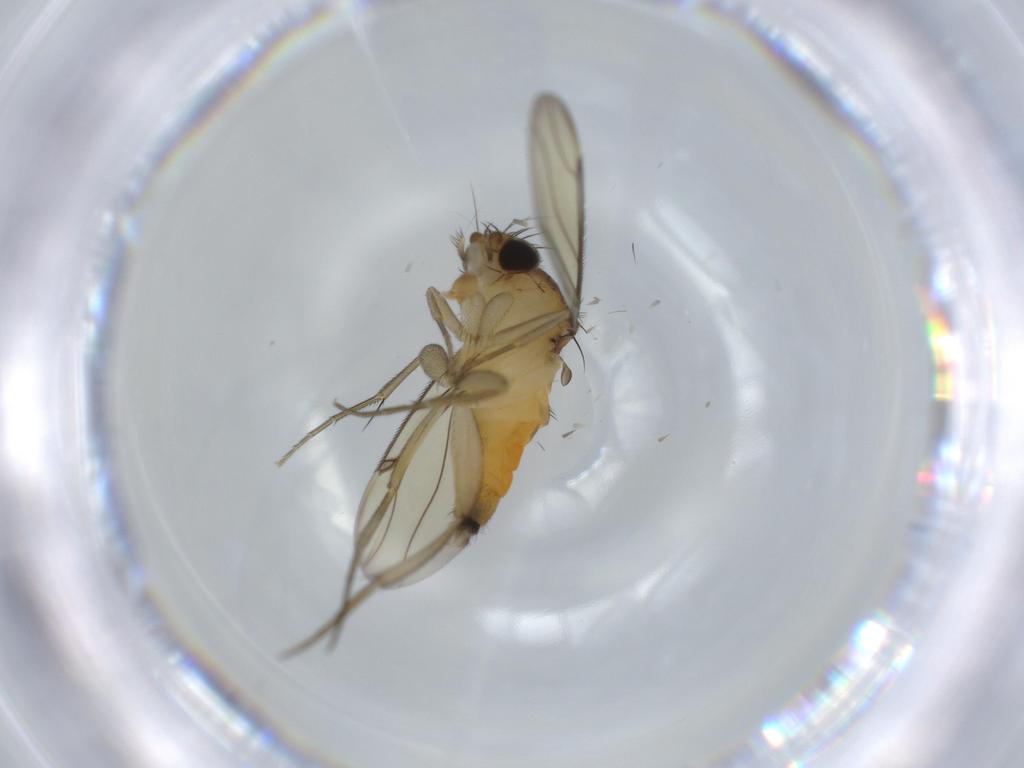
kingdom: Animalia
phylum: Arthropoda
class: Insecta
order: Diptera
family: Phoridae
